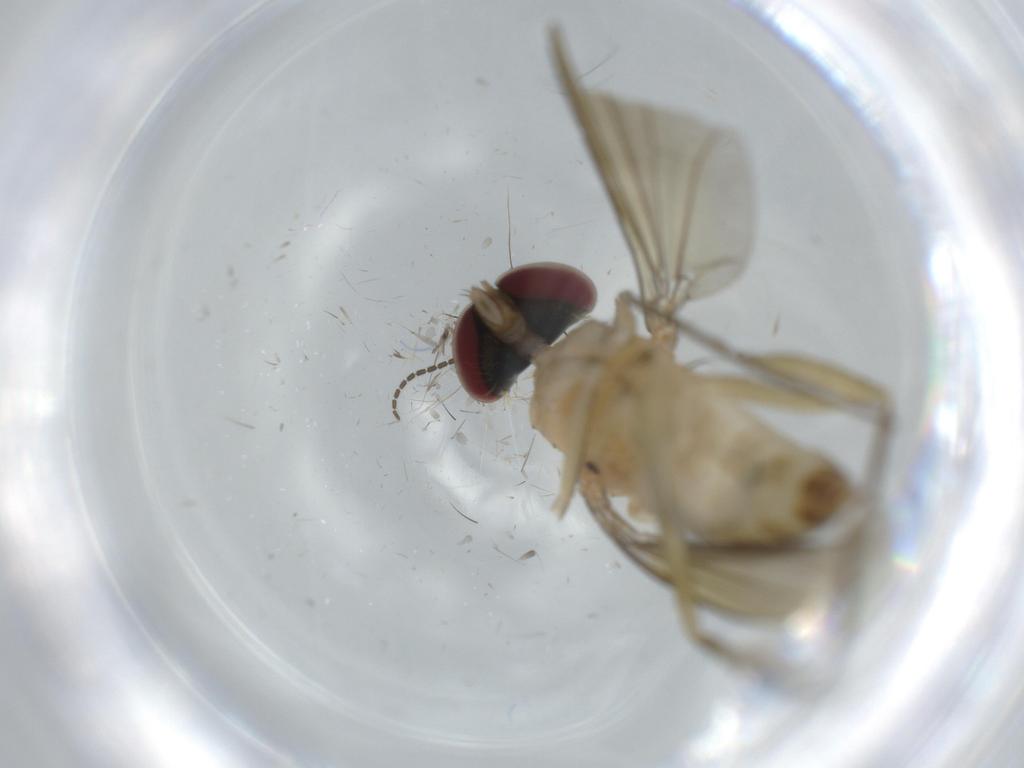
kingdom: Animalia
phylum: Arthropoda
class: Insecta
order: Diptera
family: Dolichopodidae
